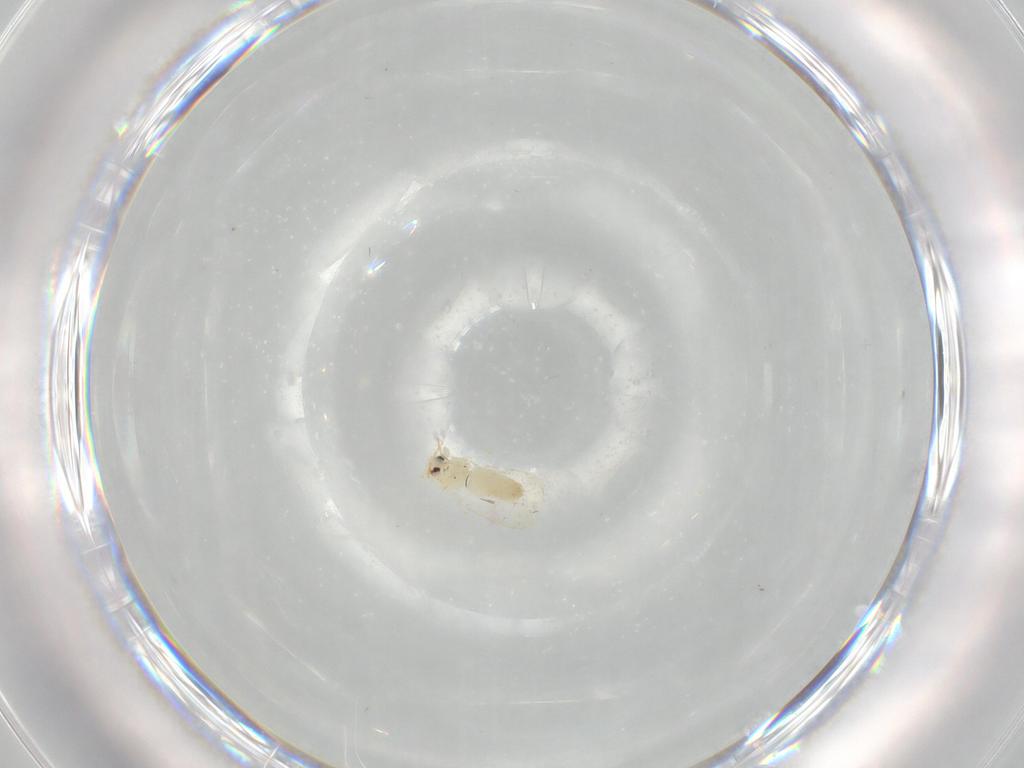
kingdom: Animalia
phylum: Arthropoda
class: Insecta
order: Hemiptera
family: Aleyrodidae
